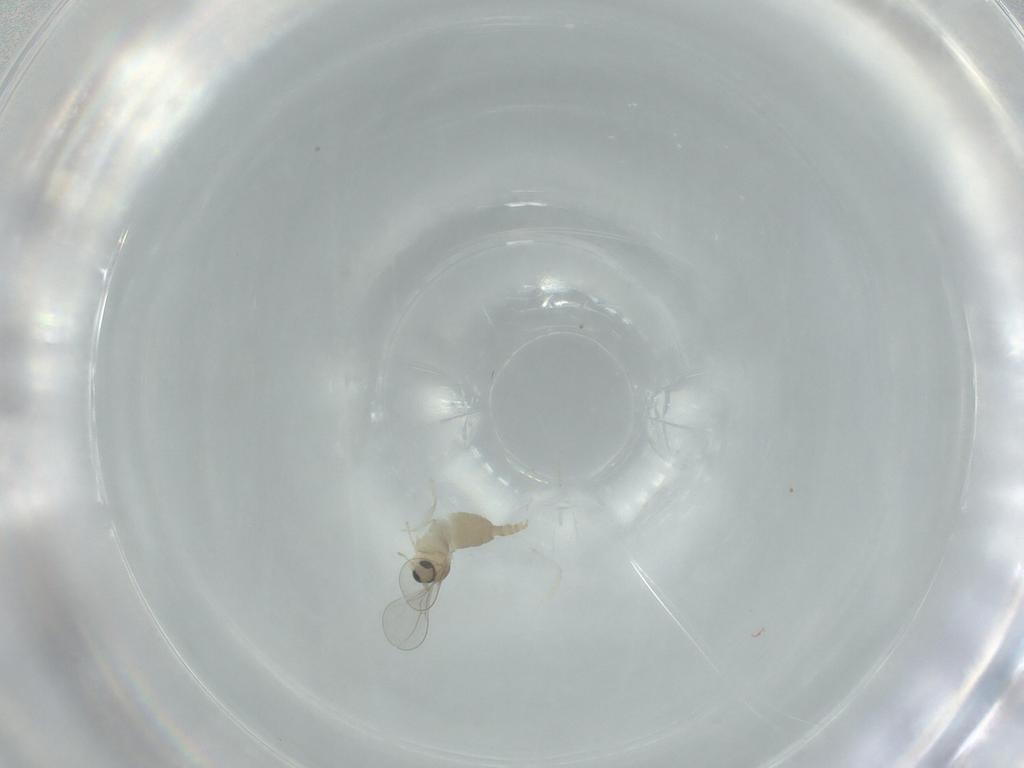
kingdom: Animalia
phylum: Arthropoda
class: Insecta
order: Diptera
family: Cecidomyiidae
